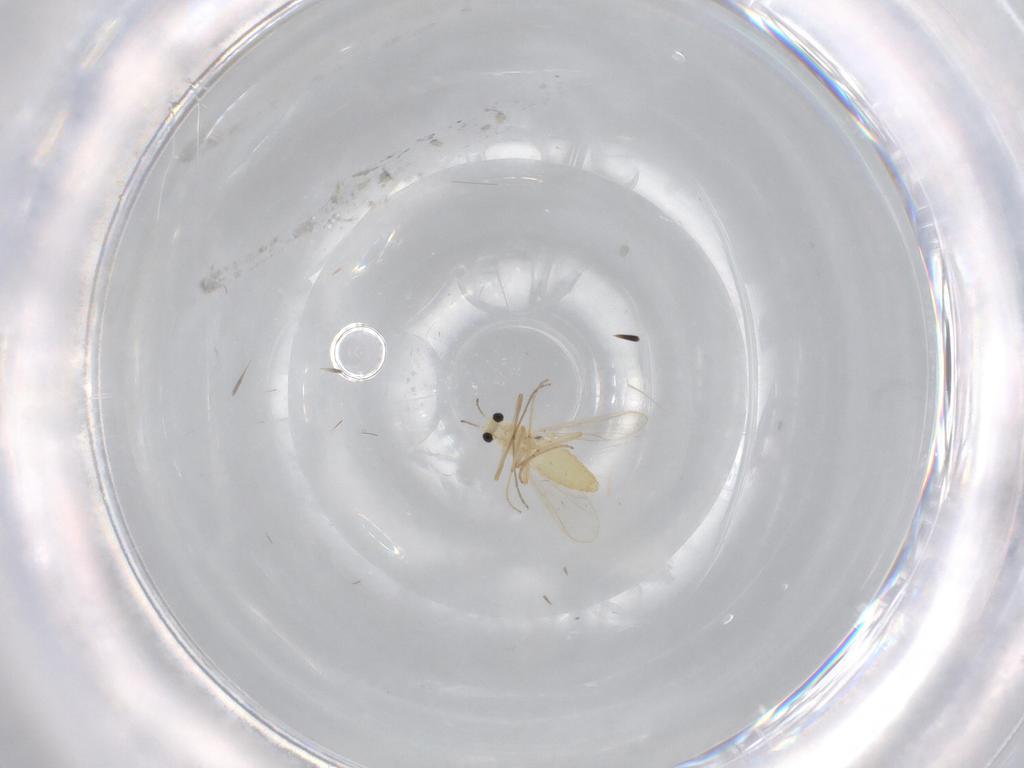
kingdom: Animalia
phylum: Arthropoda
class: Insecta
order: Diptera
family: Chironomidae
